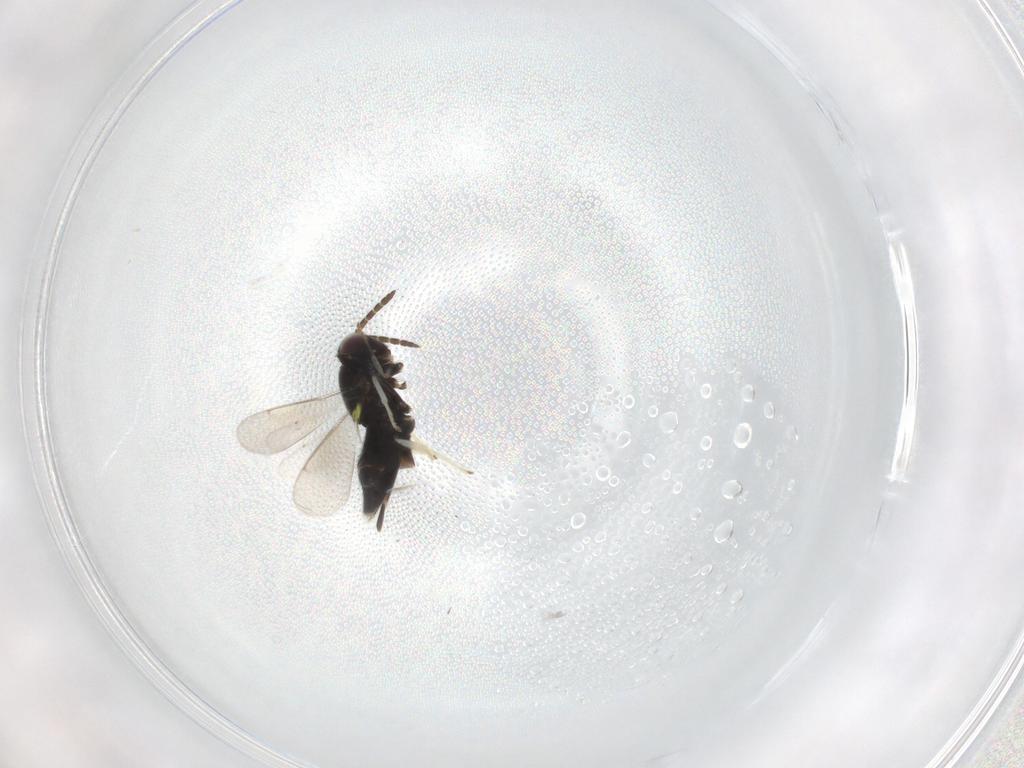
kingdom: Animalia
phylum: Arthropoda
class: Insecta
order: Hymenoptera
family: Aphelinidae
